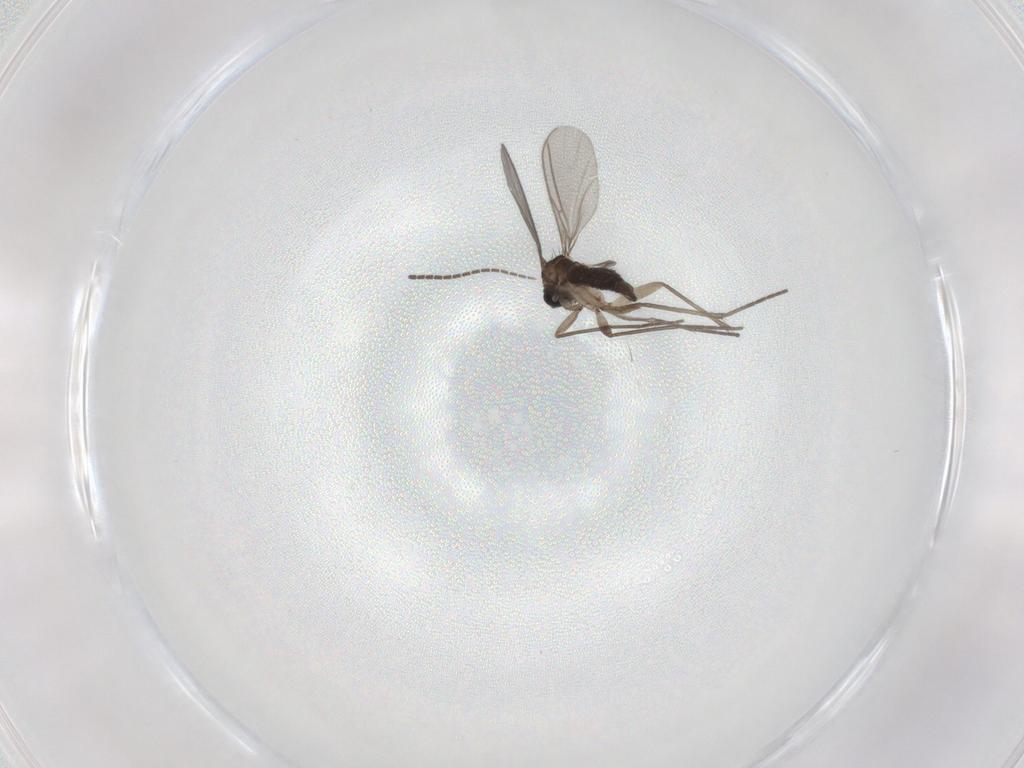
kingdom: Animalia
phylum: Arthropoda
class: Insecta
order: Diptera
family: Sciaridae
